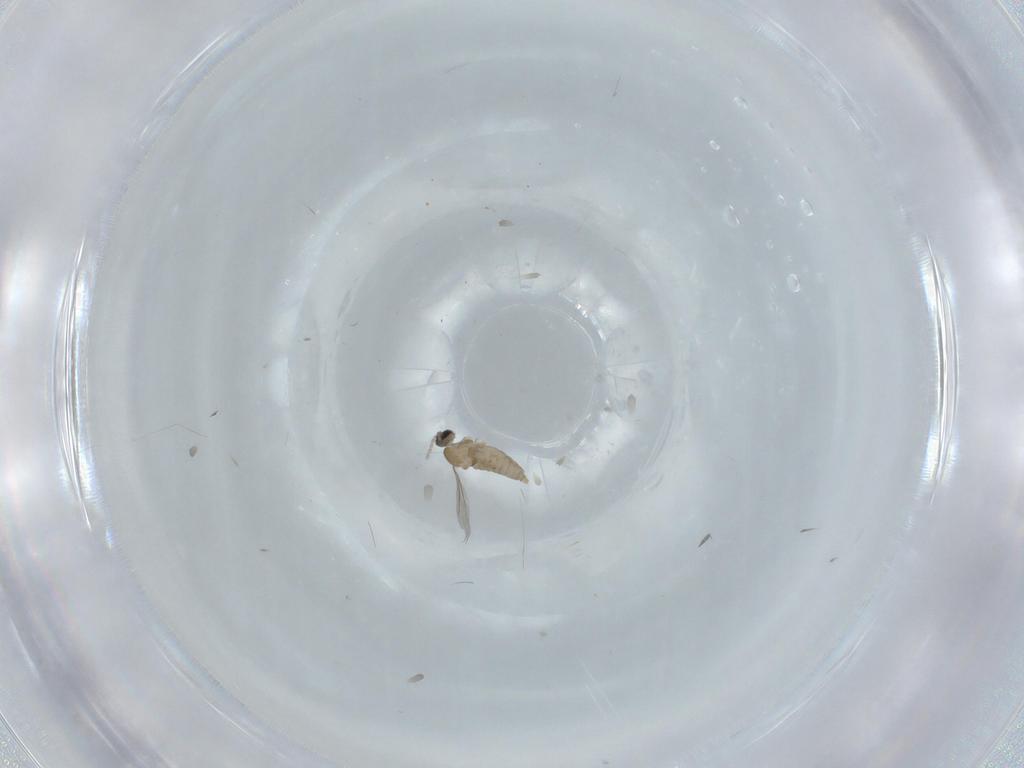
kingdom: Animalia
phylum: Arthropoda
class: Insecta
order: Diptera
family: Cecidomyiidae
